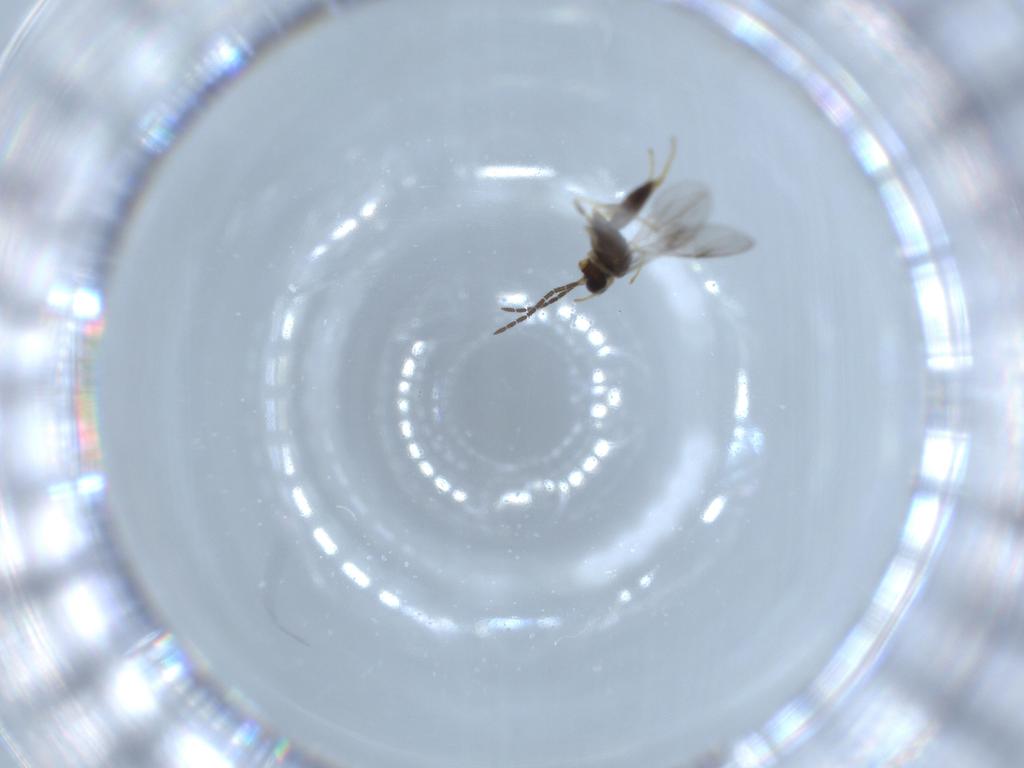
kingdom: Animalia
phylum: Arthropoda
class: Insecta
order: Hymenoptera
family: Dryinidae
